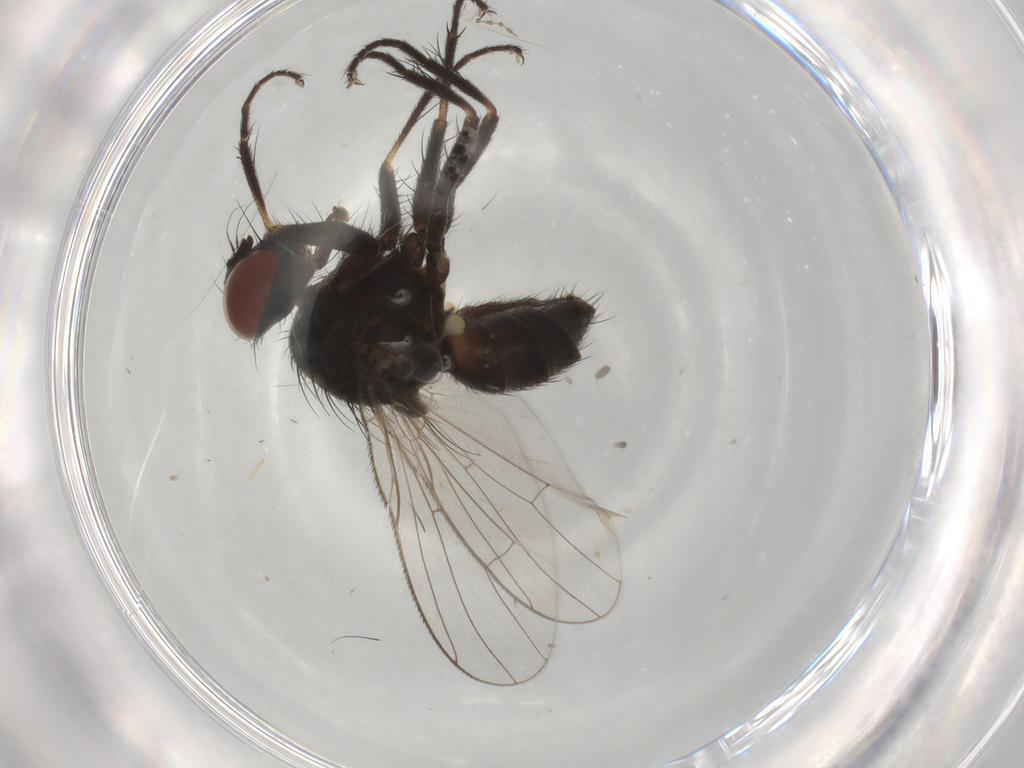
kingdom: Animalia
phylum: Arthropoda
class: Insecta
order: Diptera
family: Muscidae
